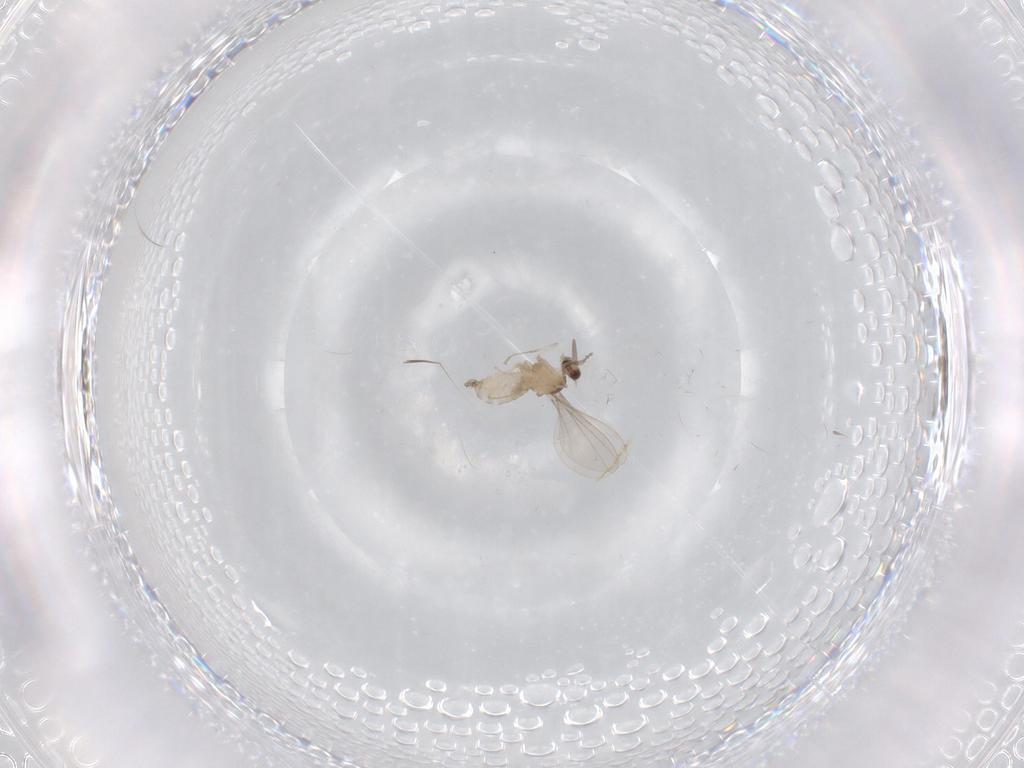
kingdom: Animalia
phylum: Arthropoda
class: Insecta
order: Diptera
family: Cecidomyiidae
